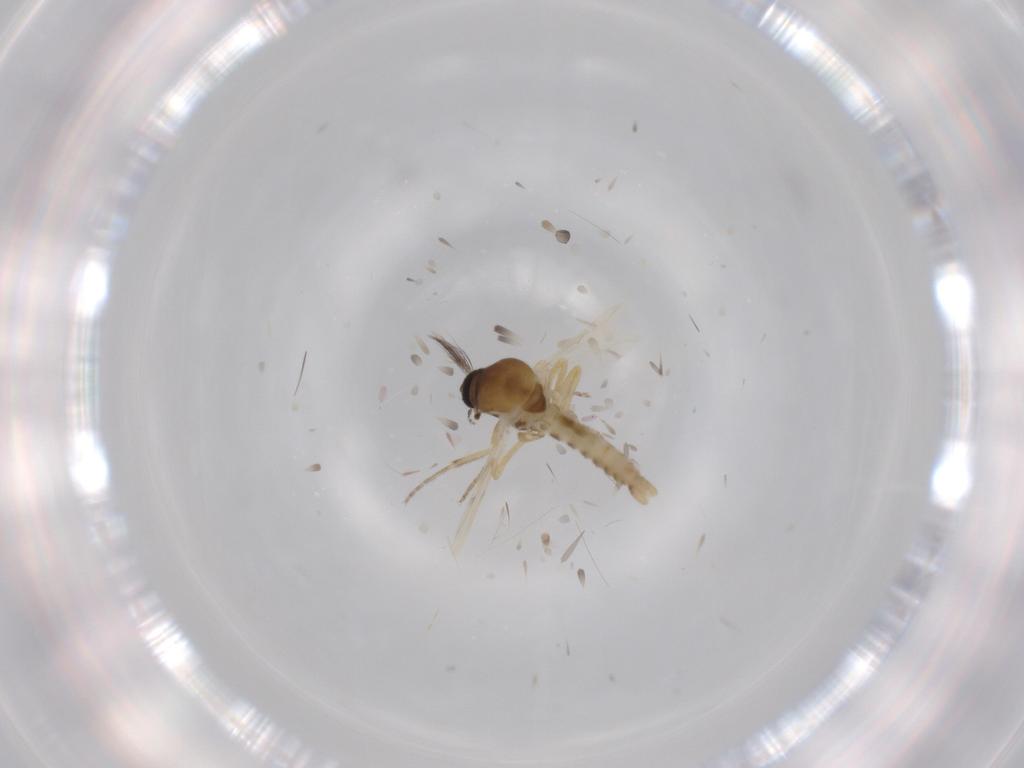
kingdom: Animalia
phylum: Arthropoda
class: Insecta
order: Diptera
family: Ceratopogonidae
